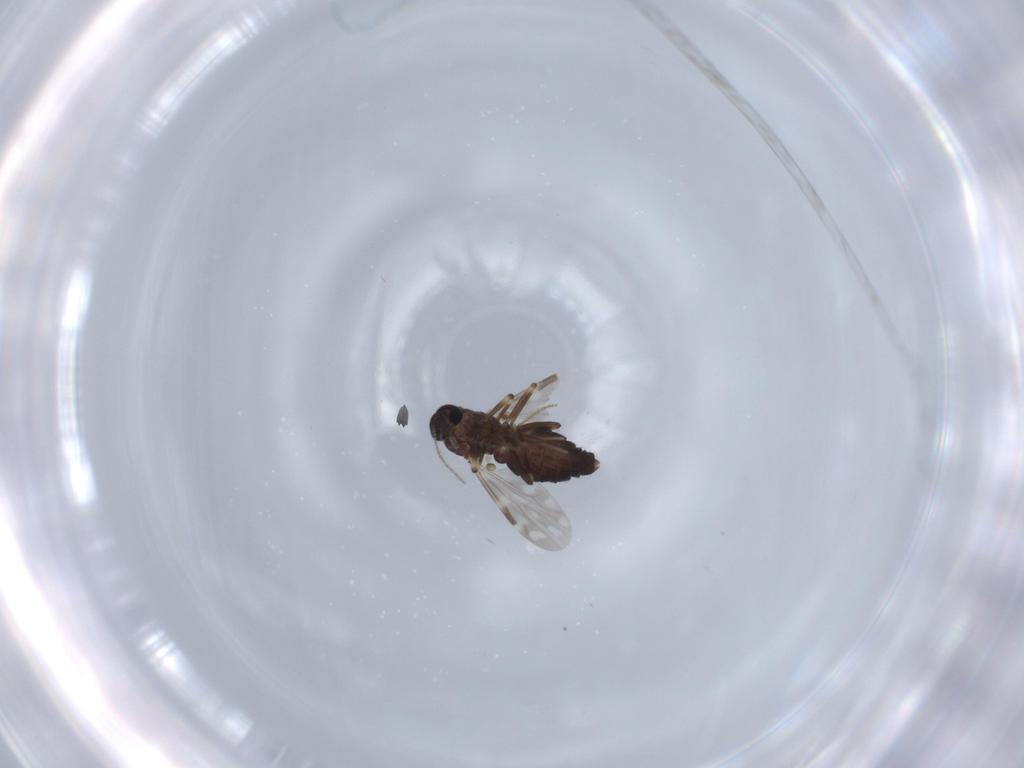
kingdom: Animalia
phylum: Arthropoda
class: Insecta
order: Diptera
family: Ceratopogonidae
